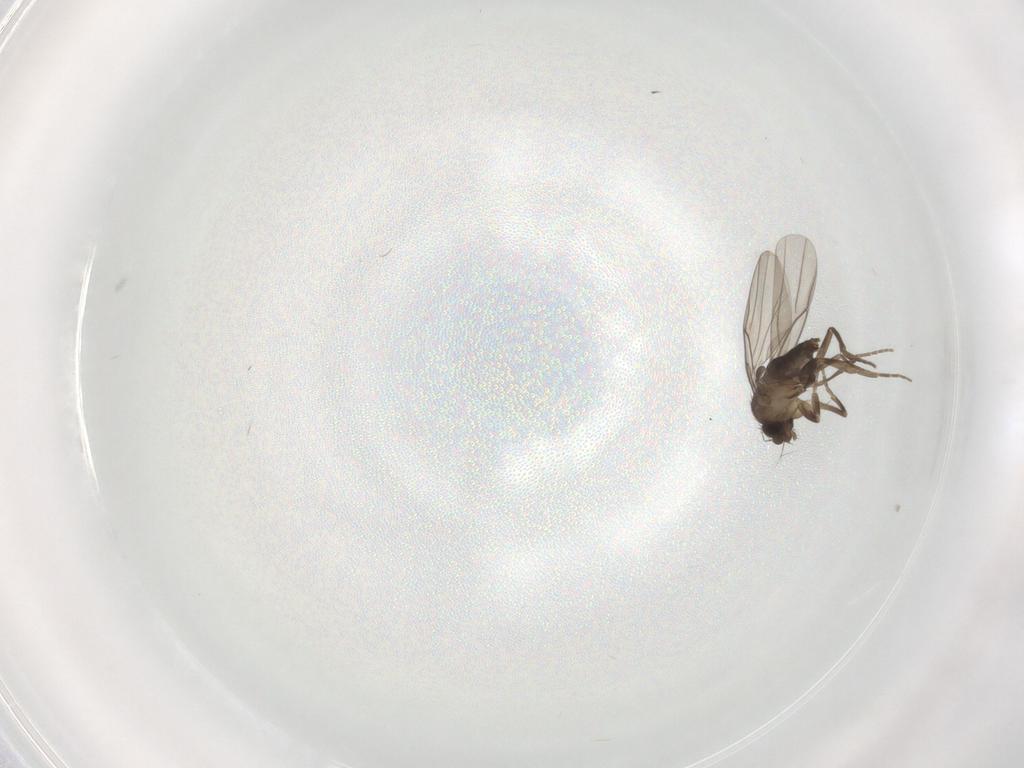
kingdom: Animalia
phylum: Arthropoda
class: Insecta
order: Diptera
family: Phoridae
